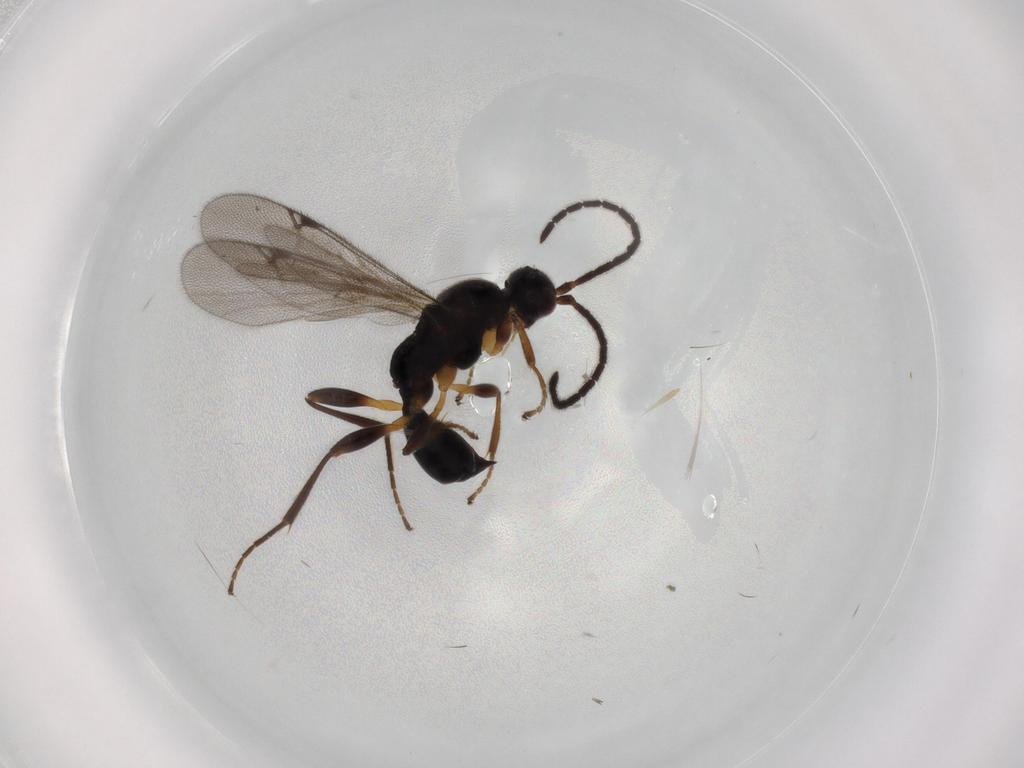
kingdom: Animalia
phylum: Arthropoda
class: Insecta
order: Hymenoptera
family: Proctotrupidae
